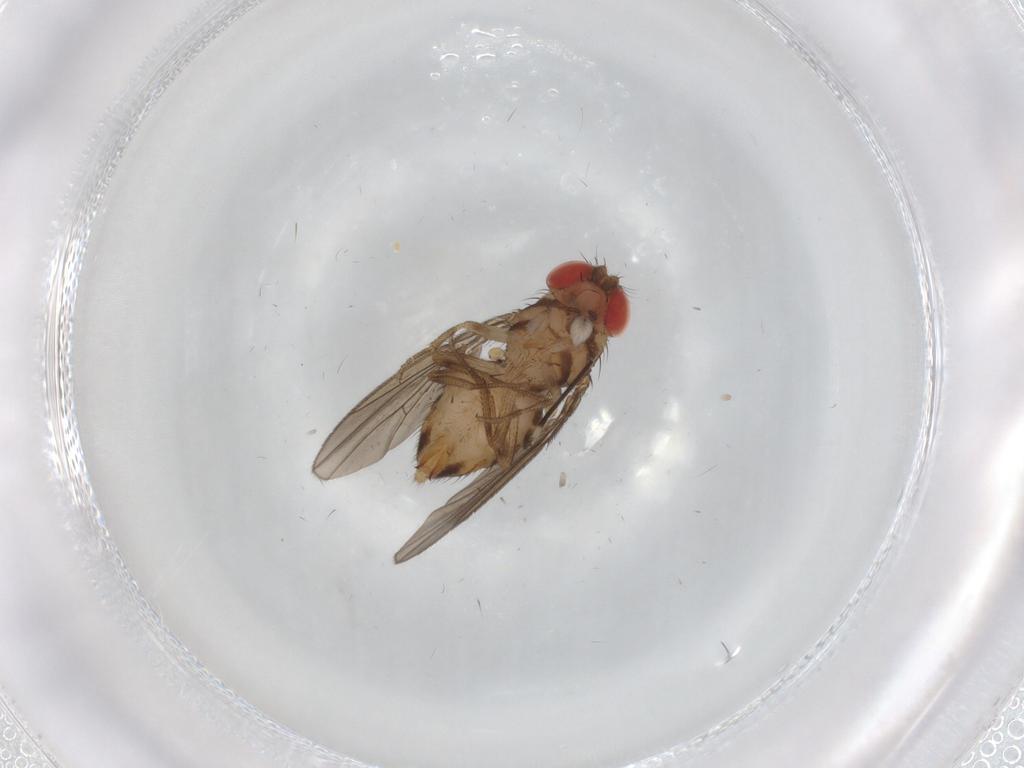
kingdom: Animalia
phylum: Arthropoda
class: Insecta
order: Diptera
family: Drosophilidae
